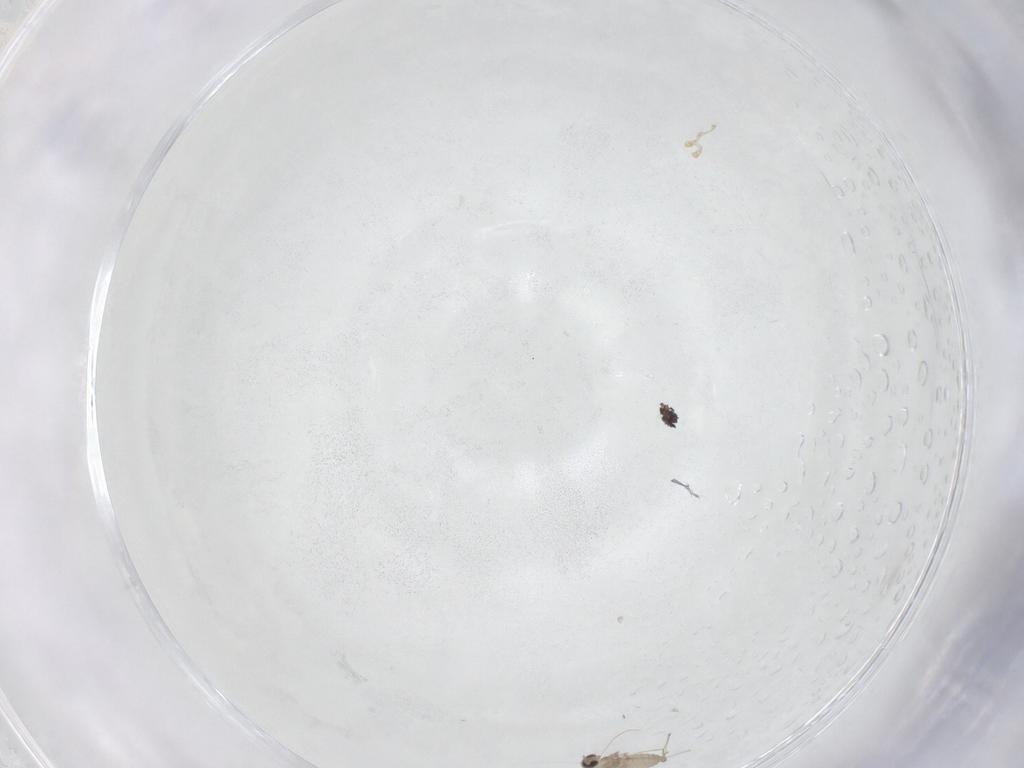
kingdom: Animalia
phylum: Arthropoda
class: Insecta
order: Diptera
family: Cecidomyiidae
